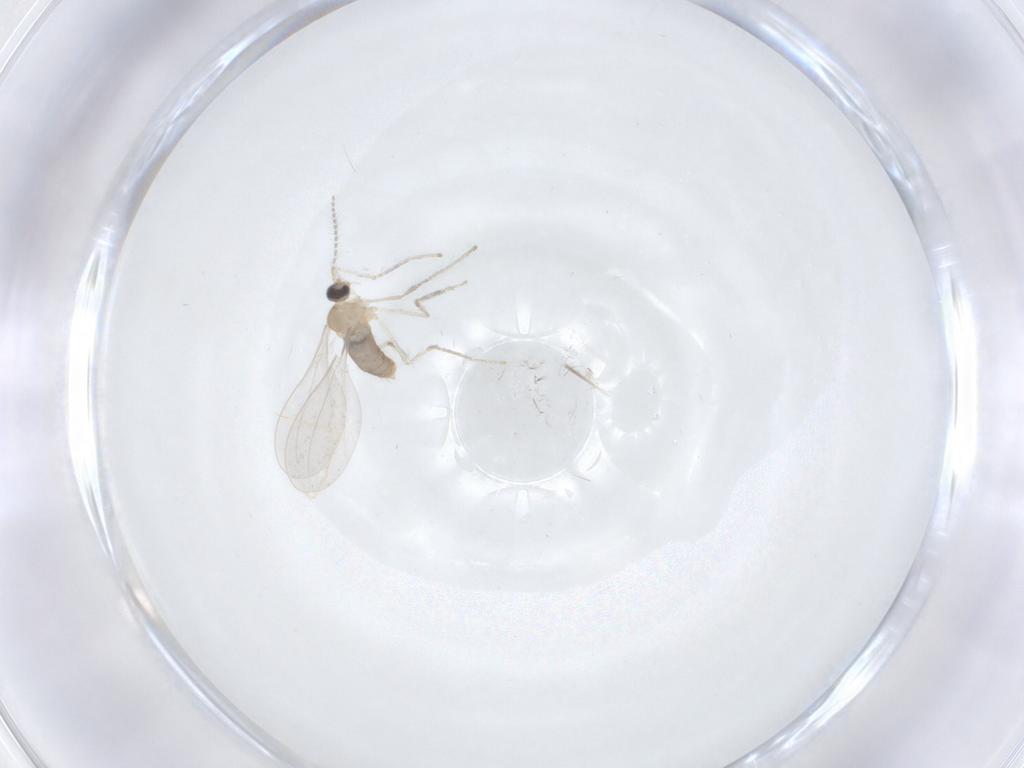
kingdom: Animalia
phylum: Arthropoda
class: Insecta
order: Diptera
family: Cecidomyiidae
